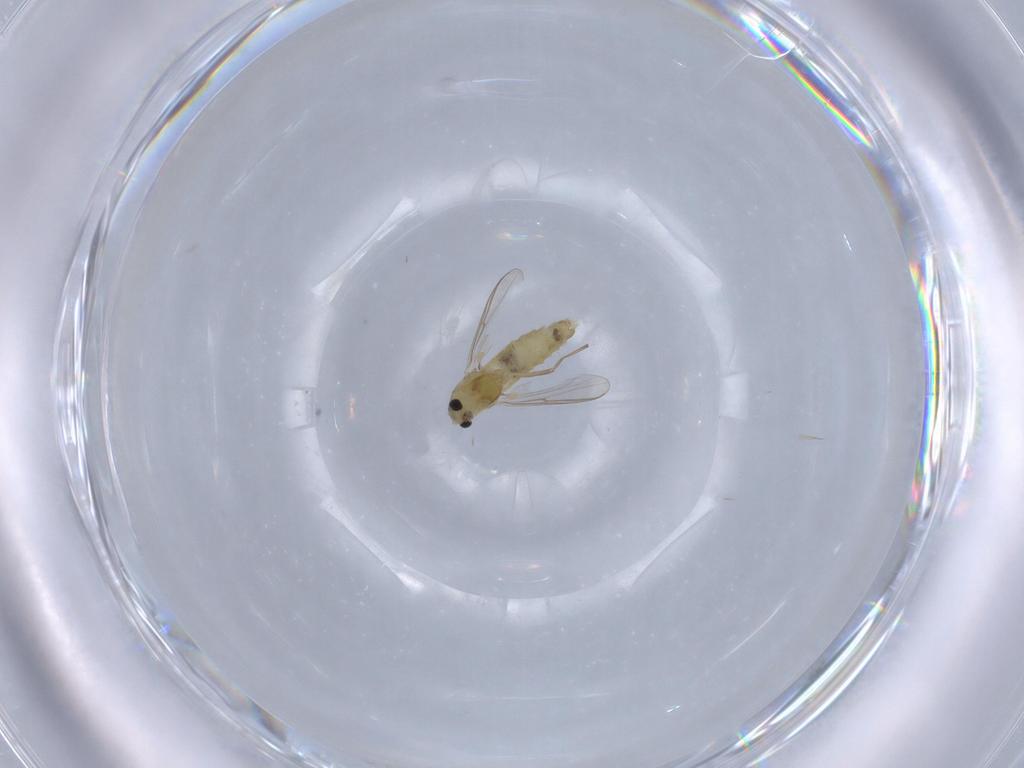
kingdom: Animalia
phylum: Arthropoda
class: Insecta
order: Diptera
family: Chironomidae
